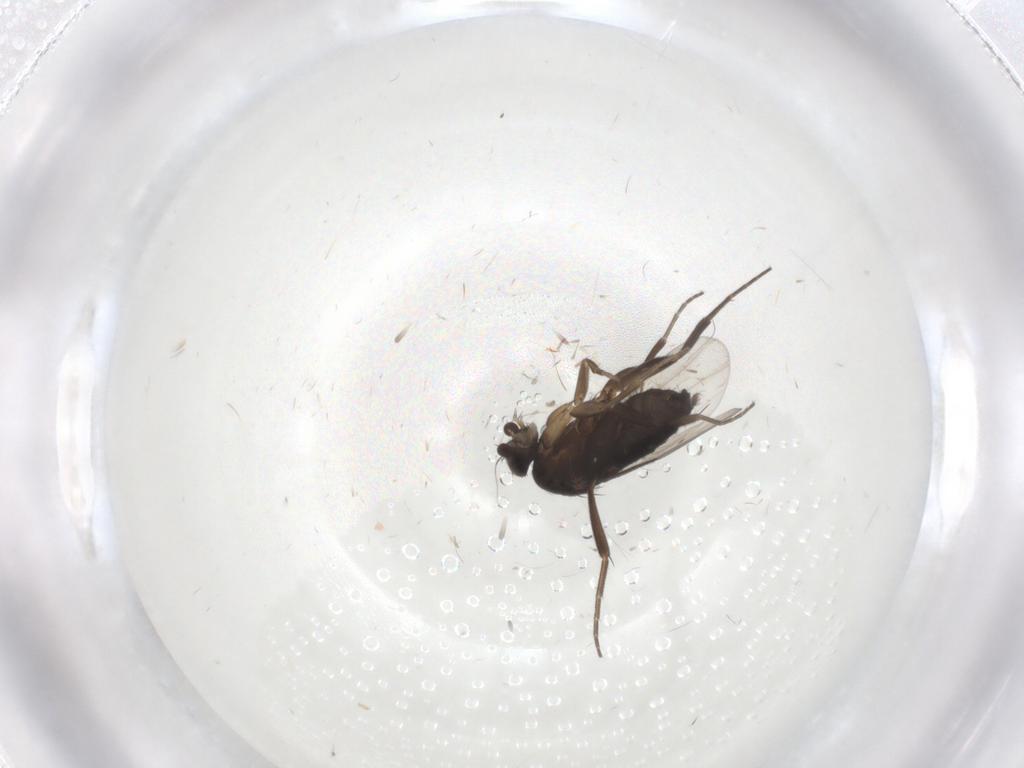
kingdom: Animalia
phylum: Arthropoda
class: Insecta
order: Diptera
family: Phoridae
